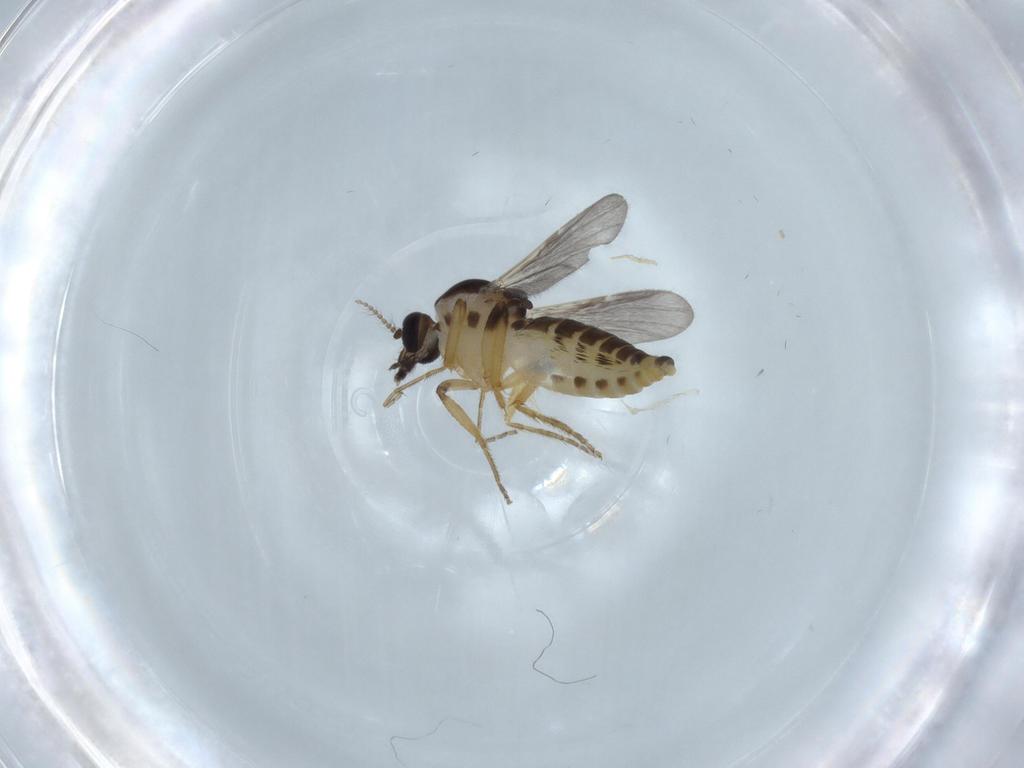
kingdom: Animalia
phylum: Arthropoda
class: Insecta
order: Diptera
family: Ceratopogonidae
